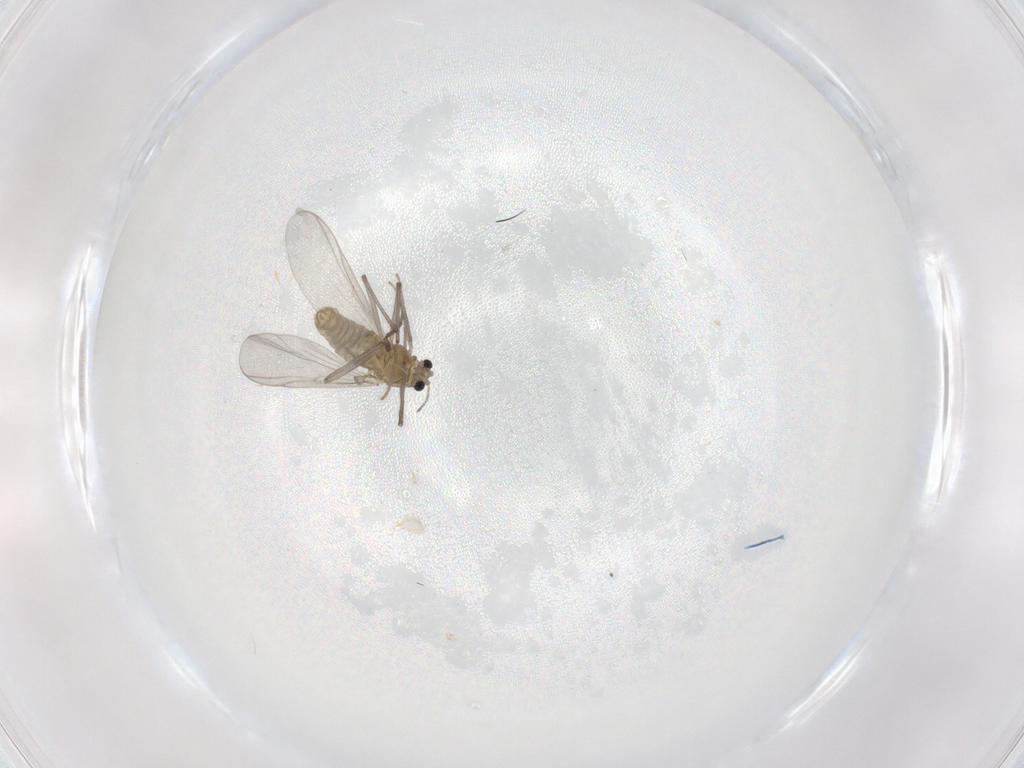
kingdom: Animalia
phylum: Arthropoda
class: Insecta
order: Diptera
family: Chironomidae
